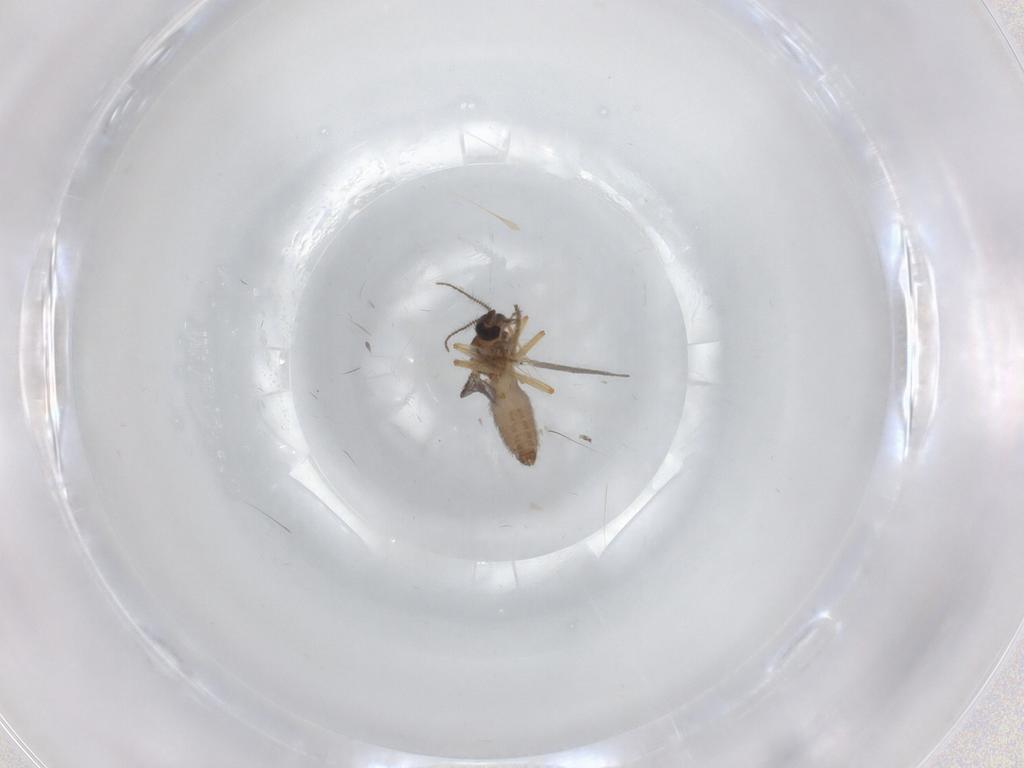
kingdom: Animalia
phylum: Arthropoda
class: Insecta
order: Diptera
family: Ceratopogonidae
